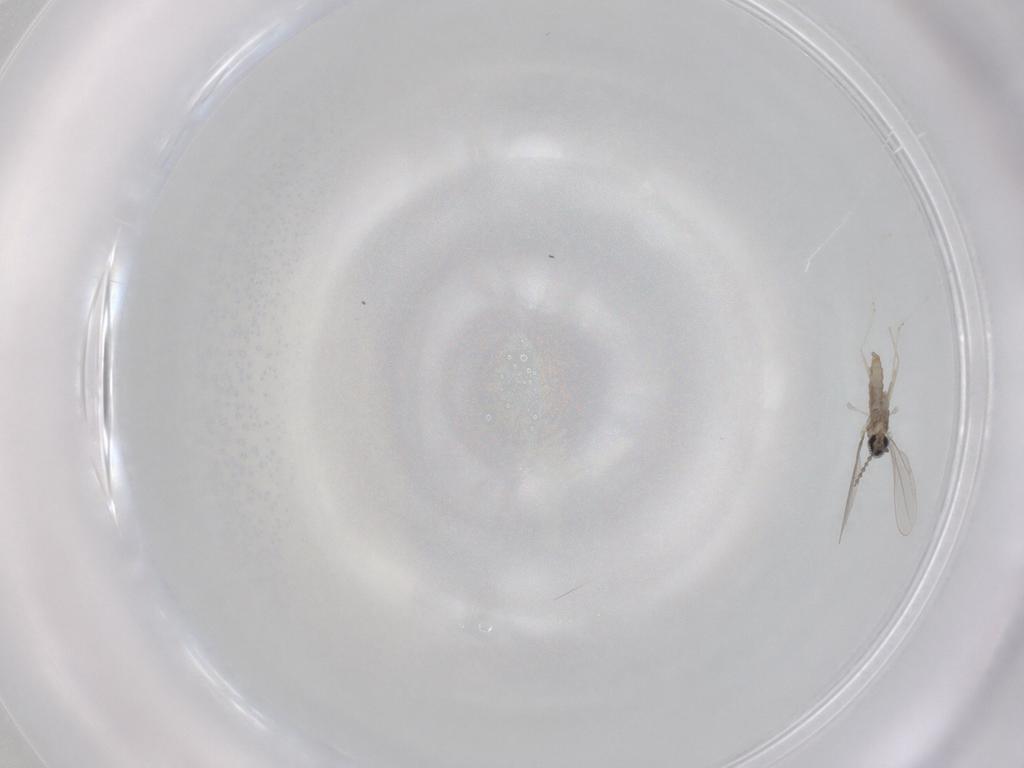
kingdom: Animalia
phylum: Arthropoda
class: Insecta
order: Diptera
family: Cecidomyiidae
